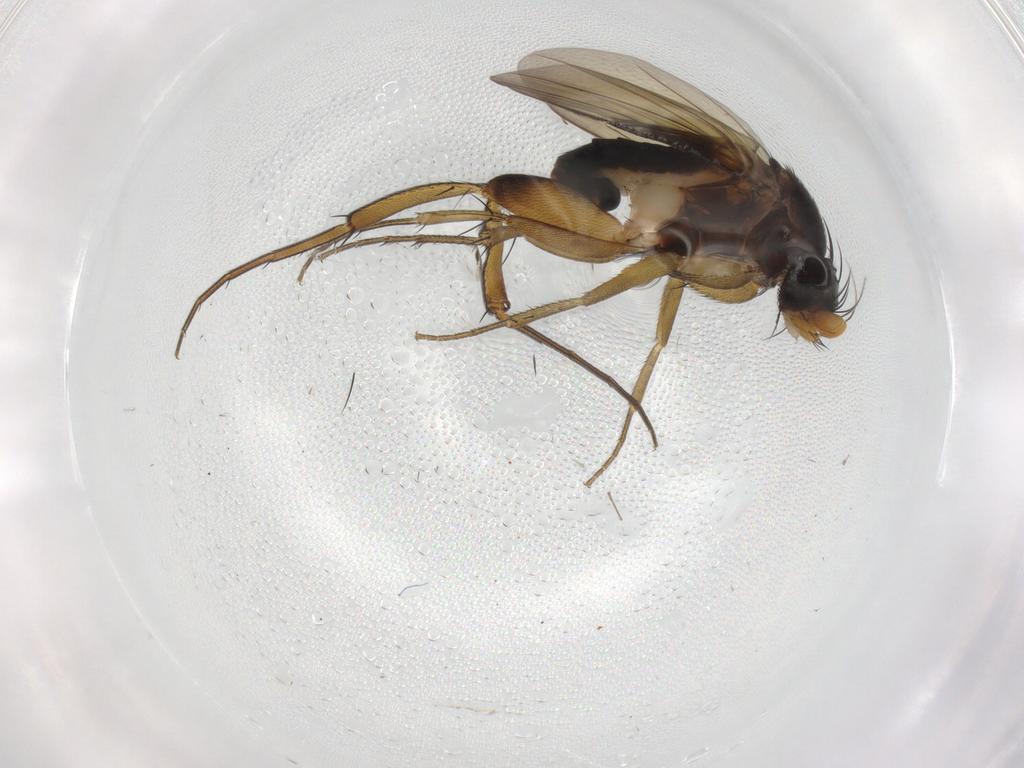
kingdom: Animalia
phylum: Arthropoda
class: Insecta
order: Diptera
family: Phoridae
